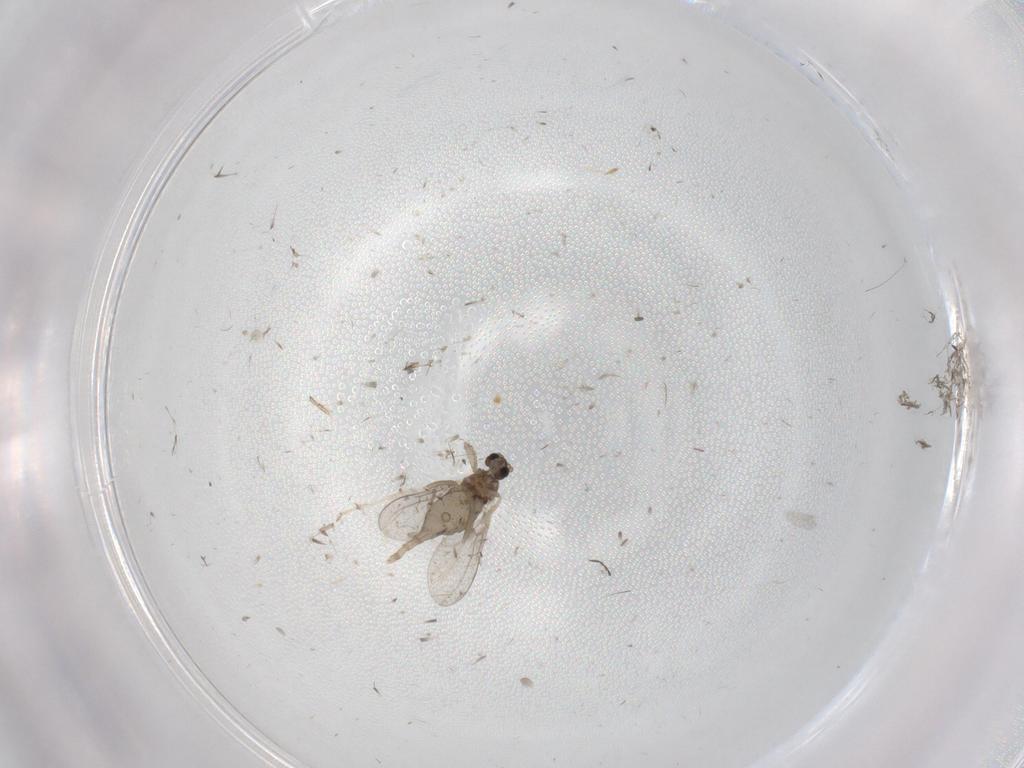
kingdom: Animalia
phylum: Arthropoda
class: Insecta
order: Diptera
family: Cecidomyiidae
